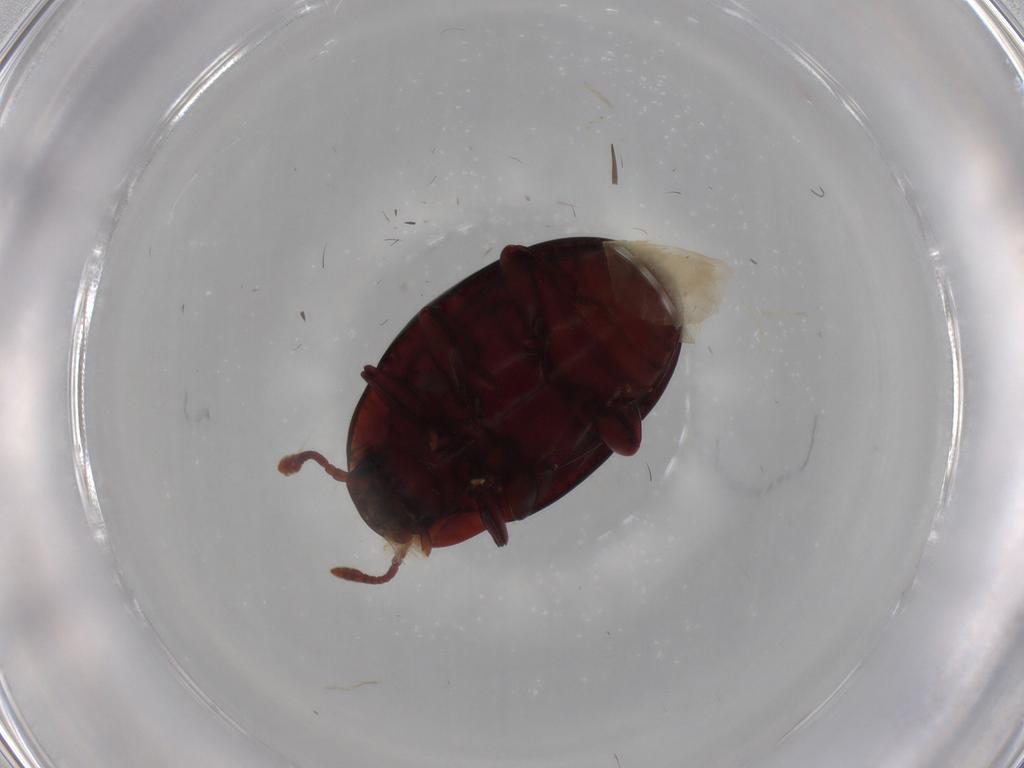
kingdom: Animalia
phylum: Arthropoda
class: Insecta
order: Coleoptera
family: Zopheridae
